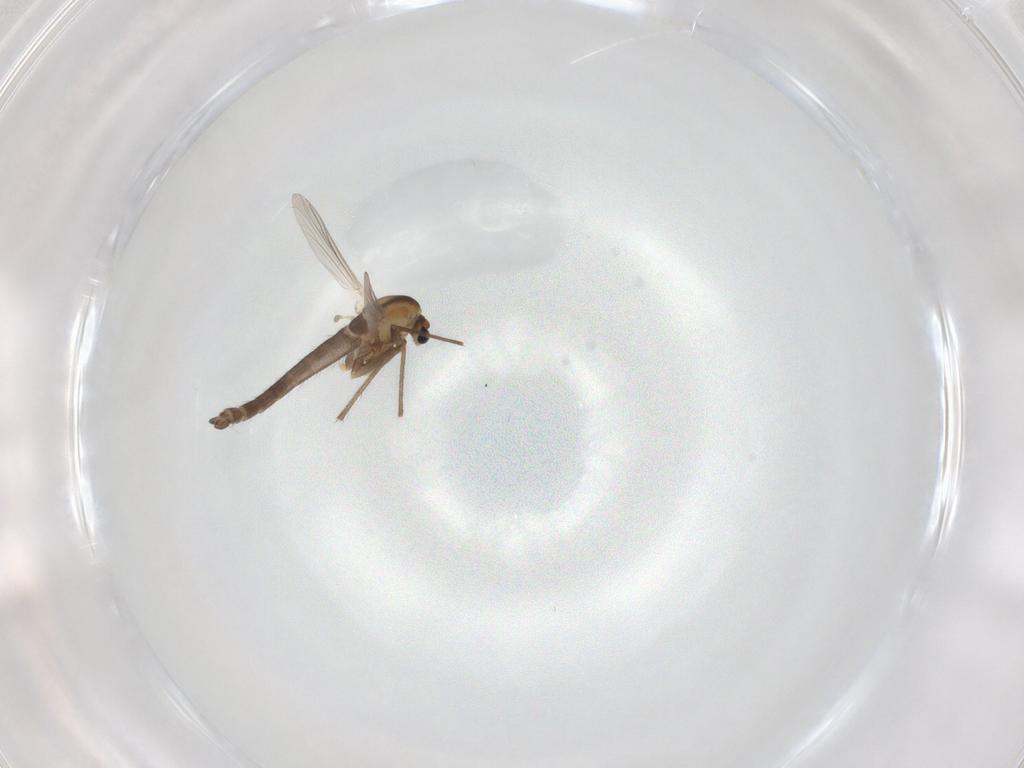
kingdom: Animalia
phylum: Arthropoda
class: Insecta
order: Diptera
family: Chironomidae
